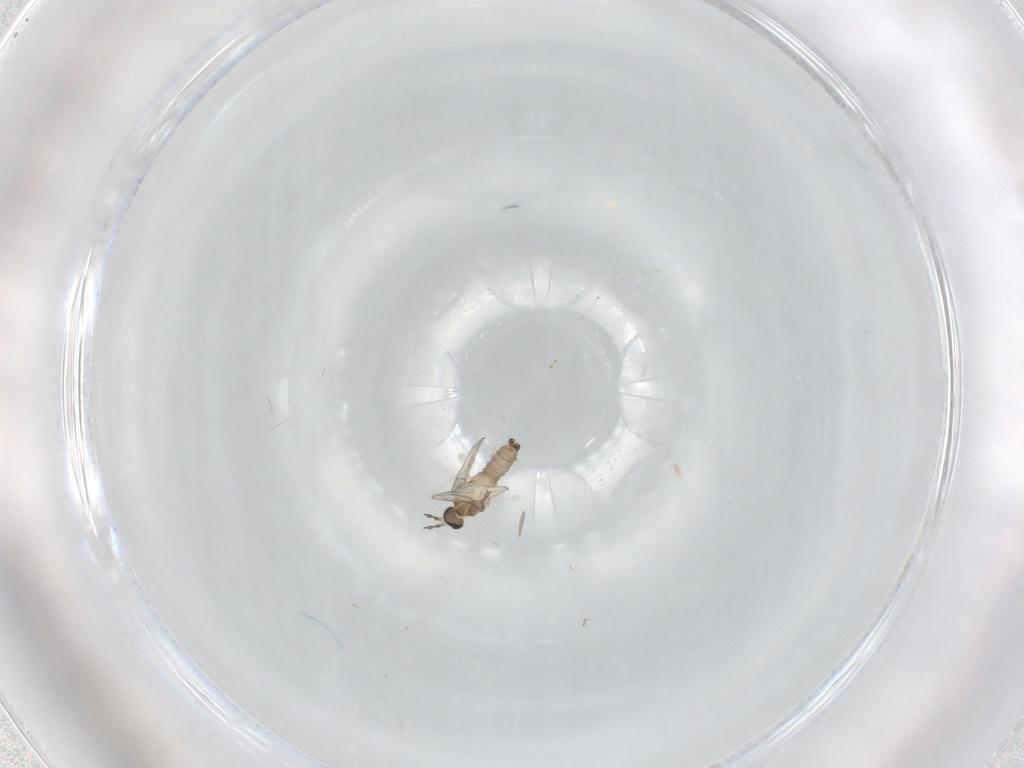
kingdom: Animalia
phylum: Arthropoda
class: Insecta
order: Diptera
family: Cecidomyiidae
